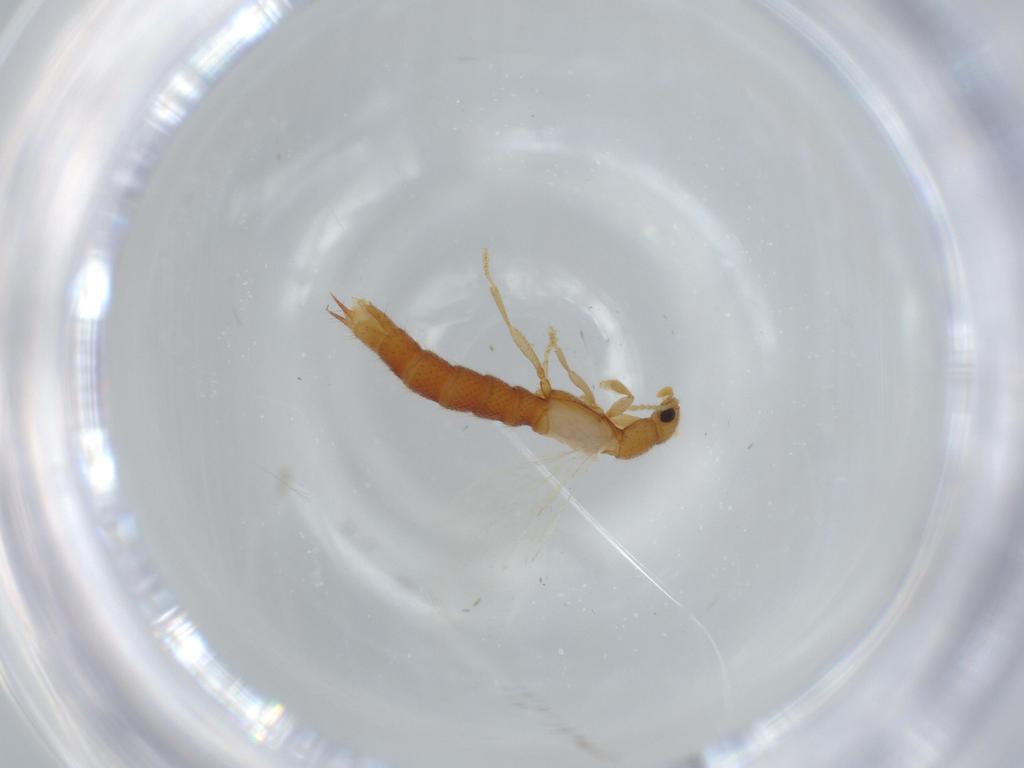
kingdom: Animalia
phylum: Arthropoda
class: Insecta
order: Coleoptera
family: Staphylinidae
